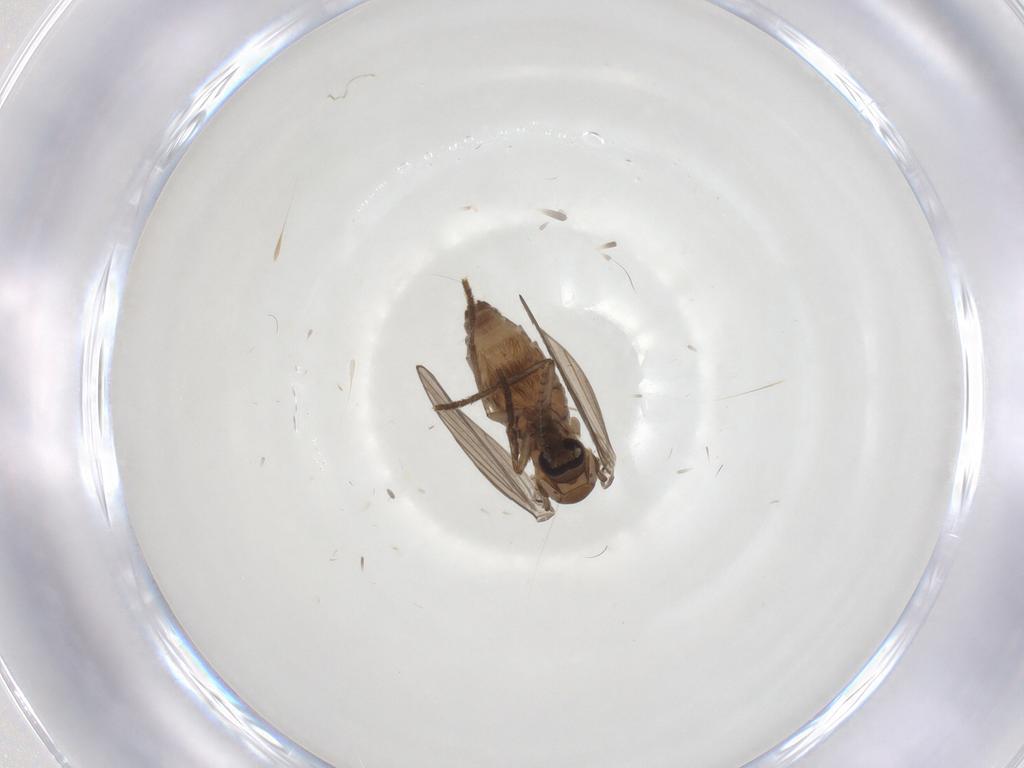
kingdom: Animalia
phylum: Arthropoda
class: Insecta
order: Diptera
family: Psychodidae
